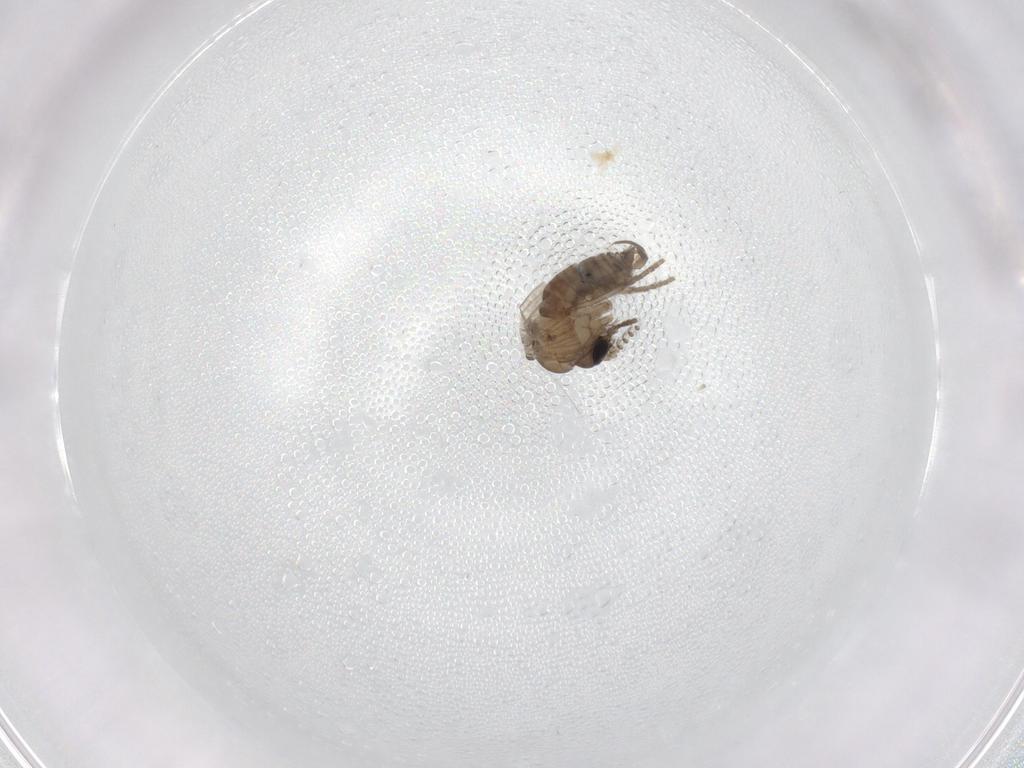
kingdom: Animalia
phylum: Arthropoda
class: Insecta
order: Diptera
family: Psychodidae
